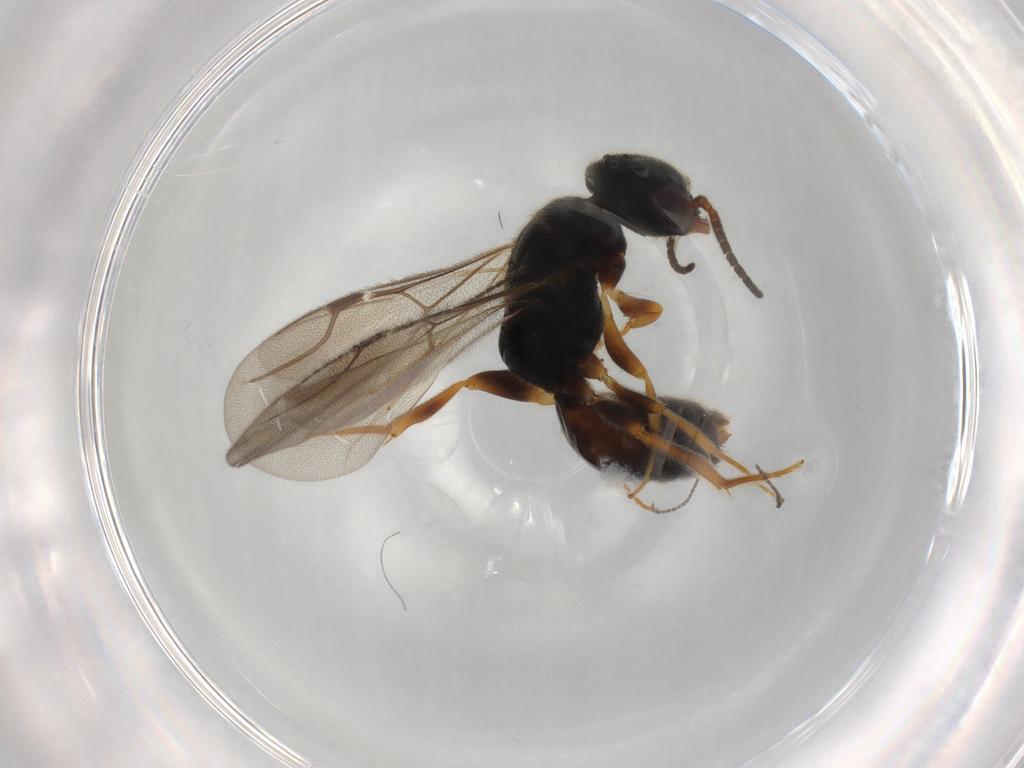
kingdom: Animalia
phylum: Arthropoda
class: Insecta
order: Hymenoptera
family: Bethylidae
